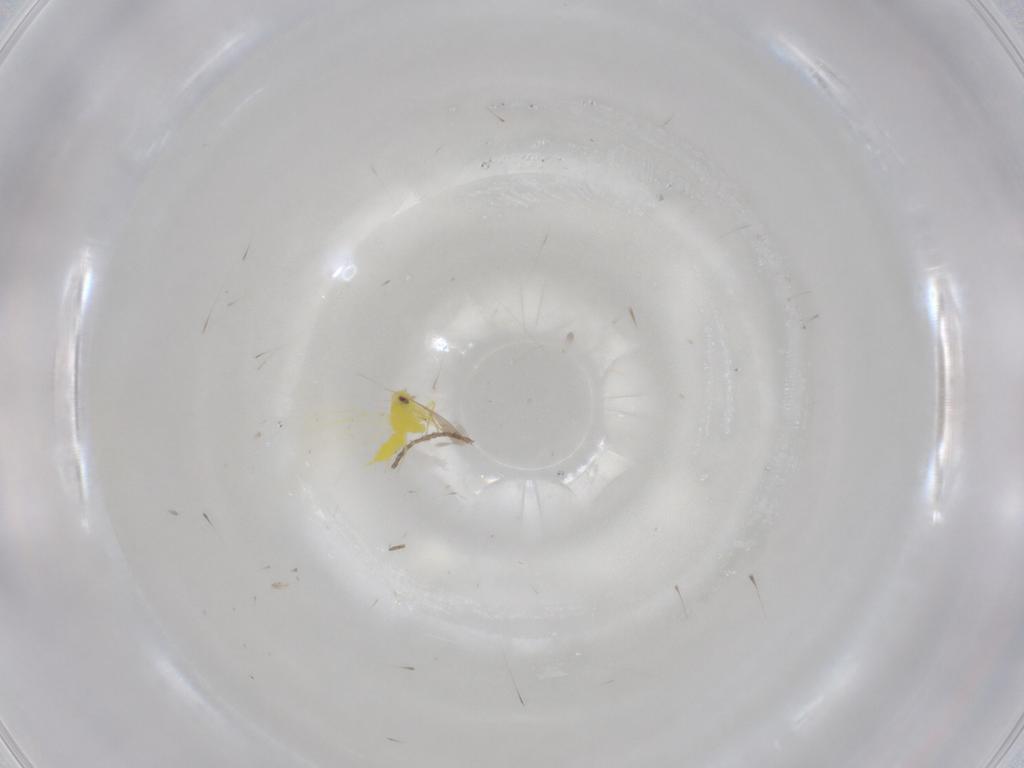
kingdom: Animalia
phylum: Arthropoda
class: Insecta
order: Hemiptera
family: Aleyrodidae
